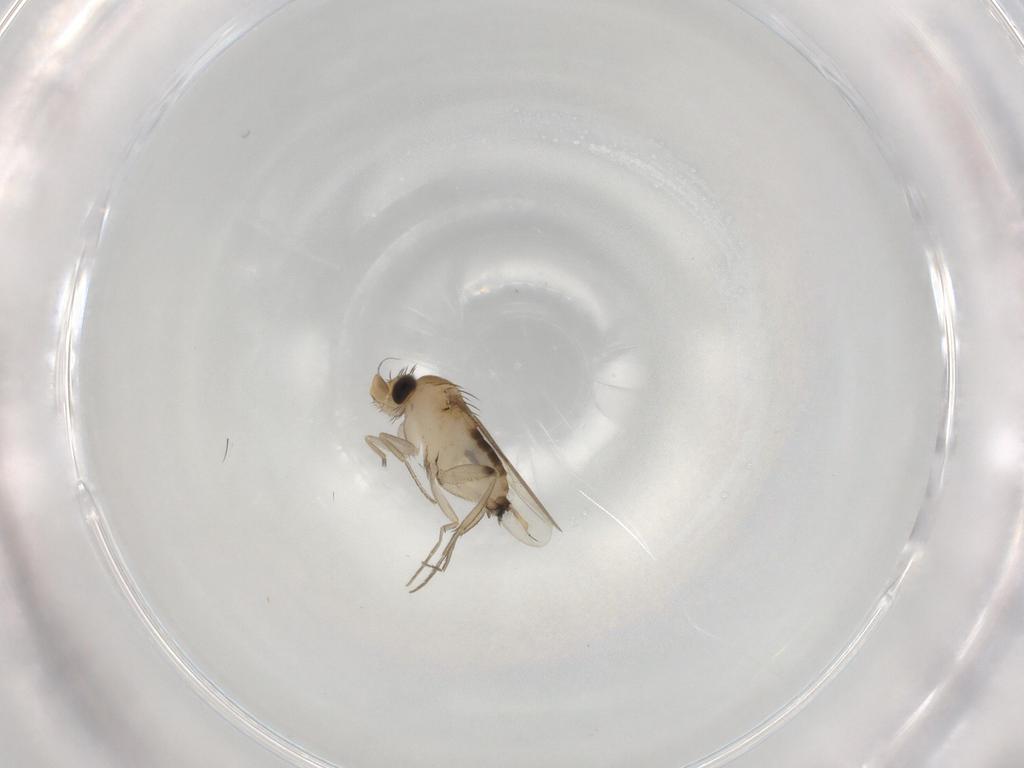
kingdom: Animalia
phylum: Arthropoda
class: Insecta
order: Diptera
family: Phoridae
